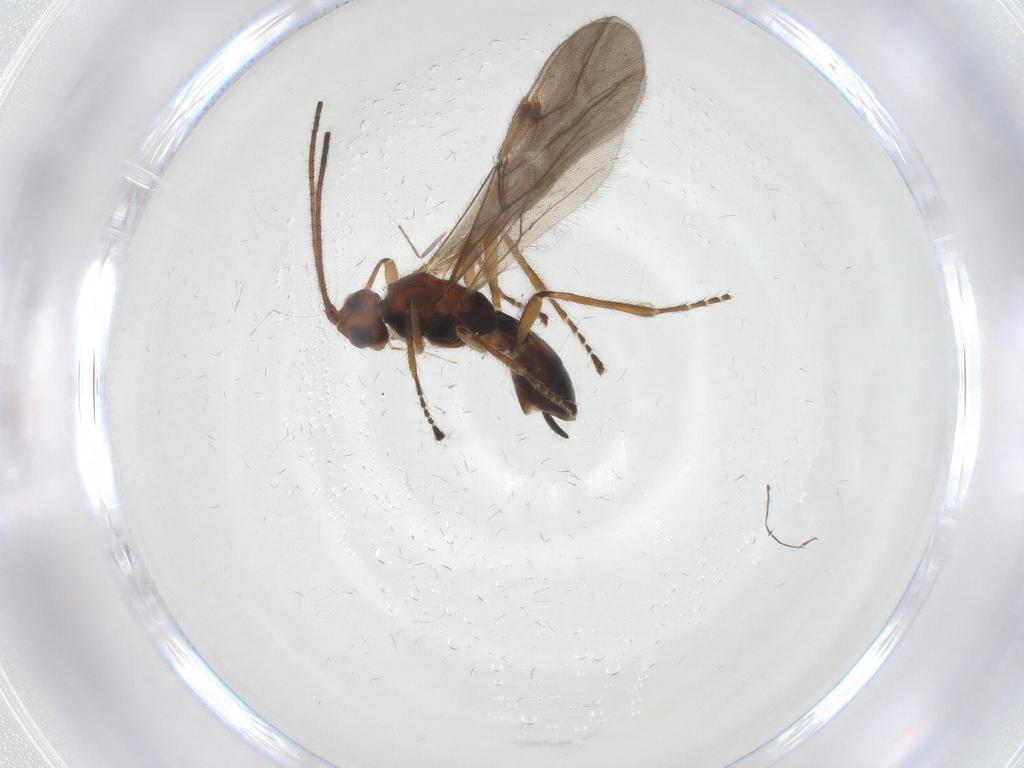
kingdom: Animalia
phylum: Arthropoda
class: Insecta
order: Hymenoptera
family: Braconidae
